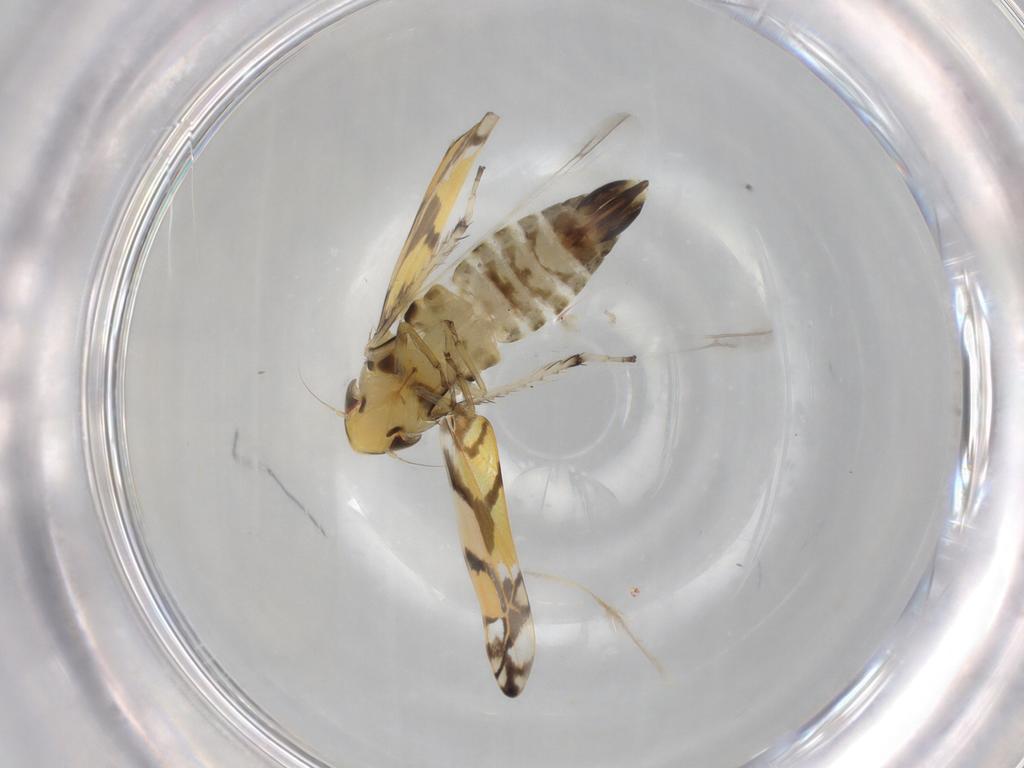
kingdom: Animalia
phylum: Arthropoda
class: Insecta
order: Hemiptera
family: Cicadellidae
